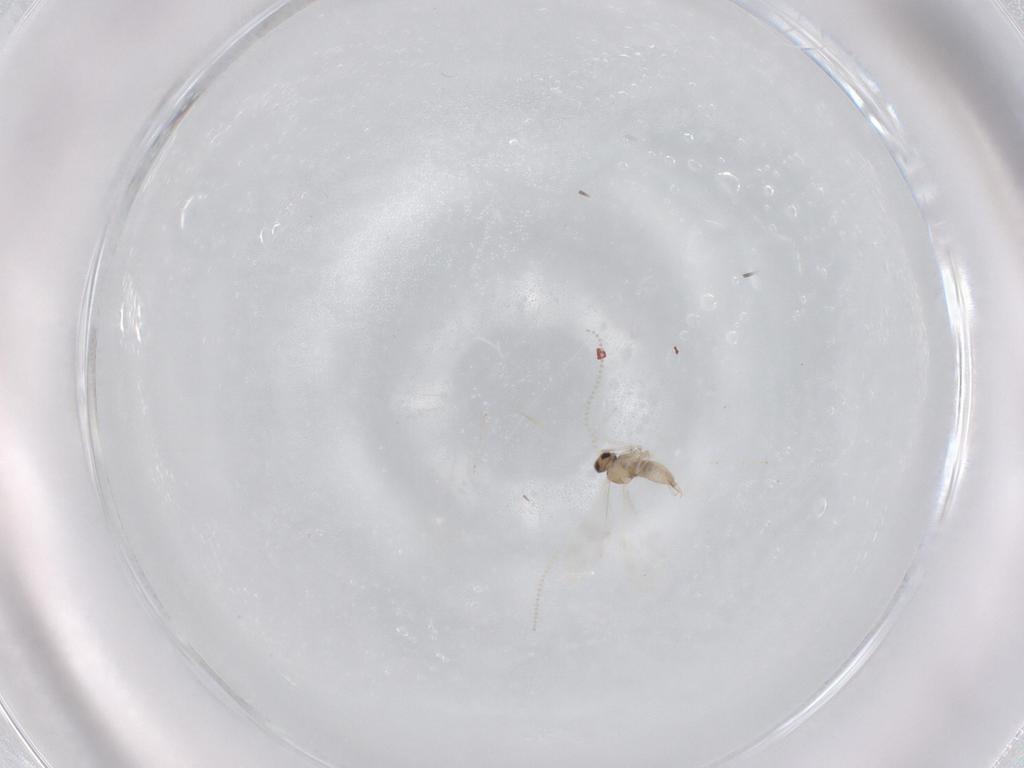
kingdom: Animalia
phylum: Arthropoda
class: Insecta
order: Diptera
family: Cecidomyiidae
